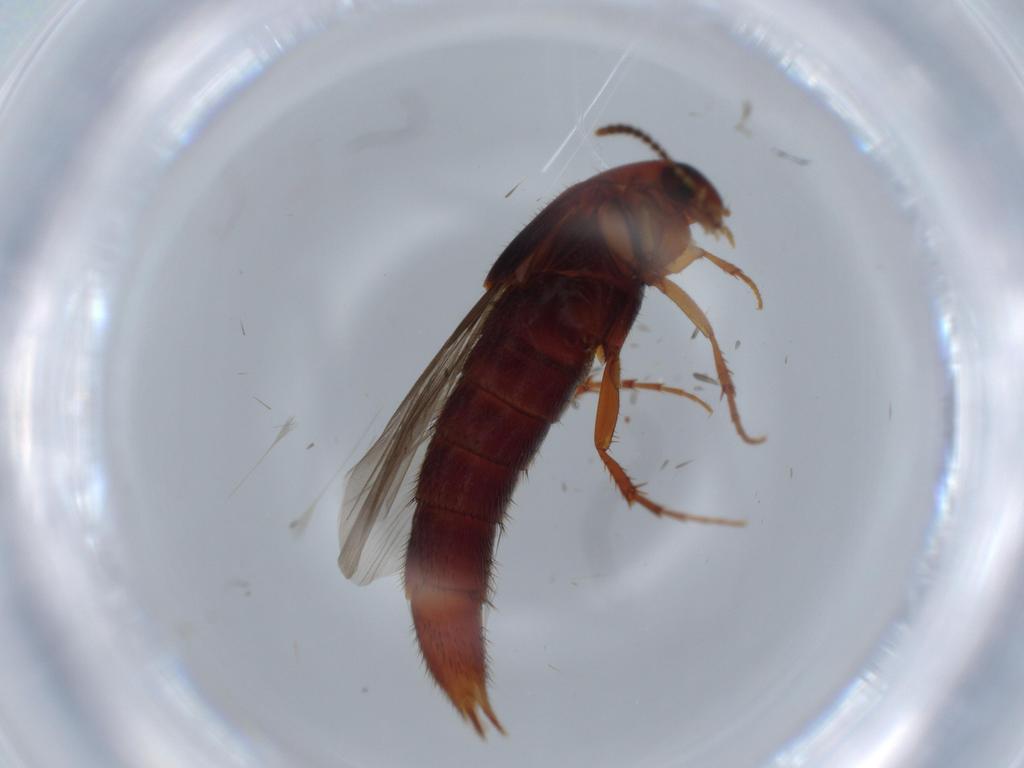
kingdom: Animalia
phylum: Arthropoda
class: Insecta
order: Coleoptera
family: Staphylinidae
